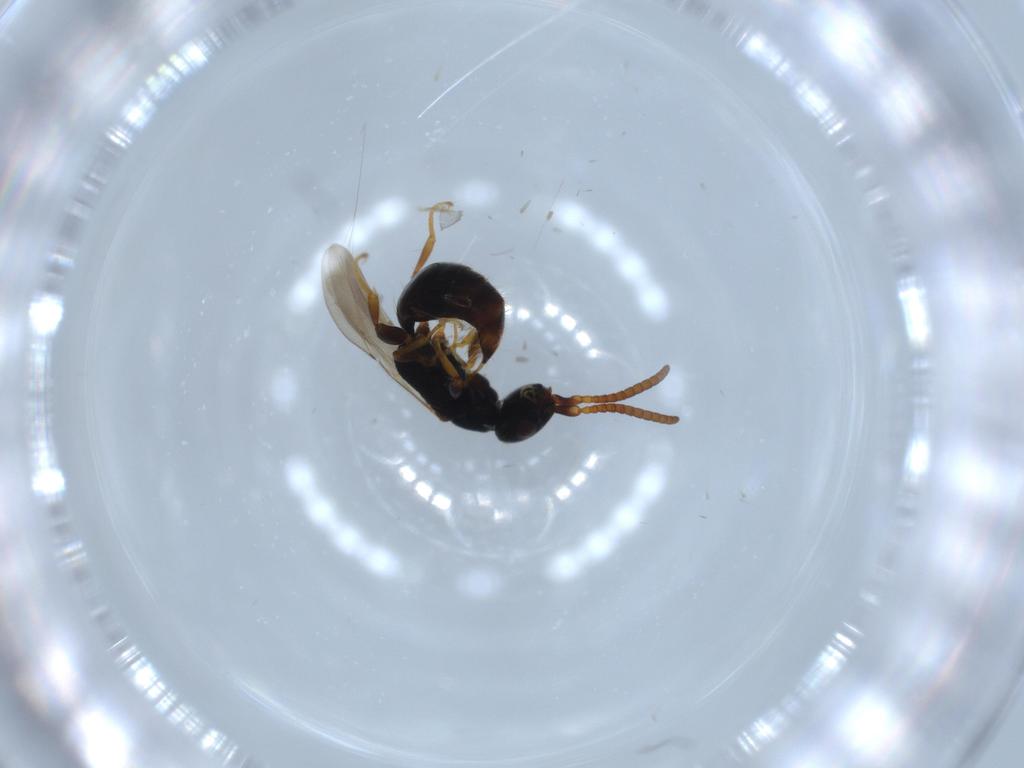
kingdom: Animalia
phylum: Arthropoda
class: Insecta
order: Hymenoptera
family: Bethylidae
